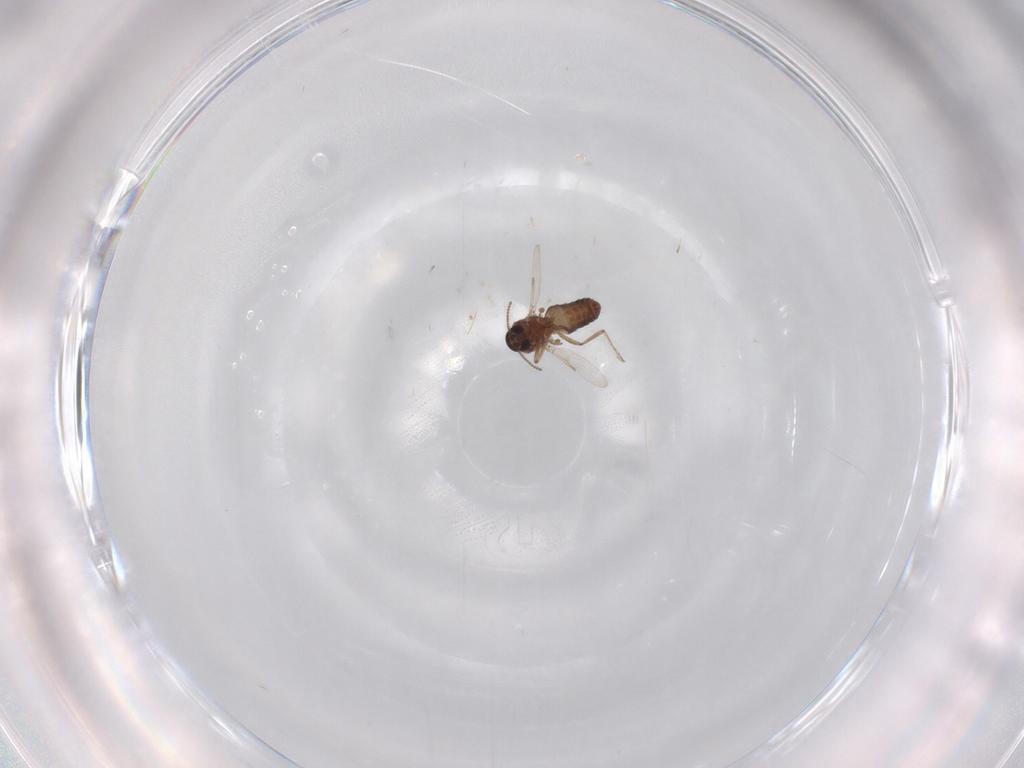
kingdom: Animalia
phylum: Arthropoda
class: Insecta
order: Diptera
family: Ceratopogonidae
